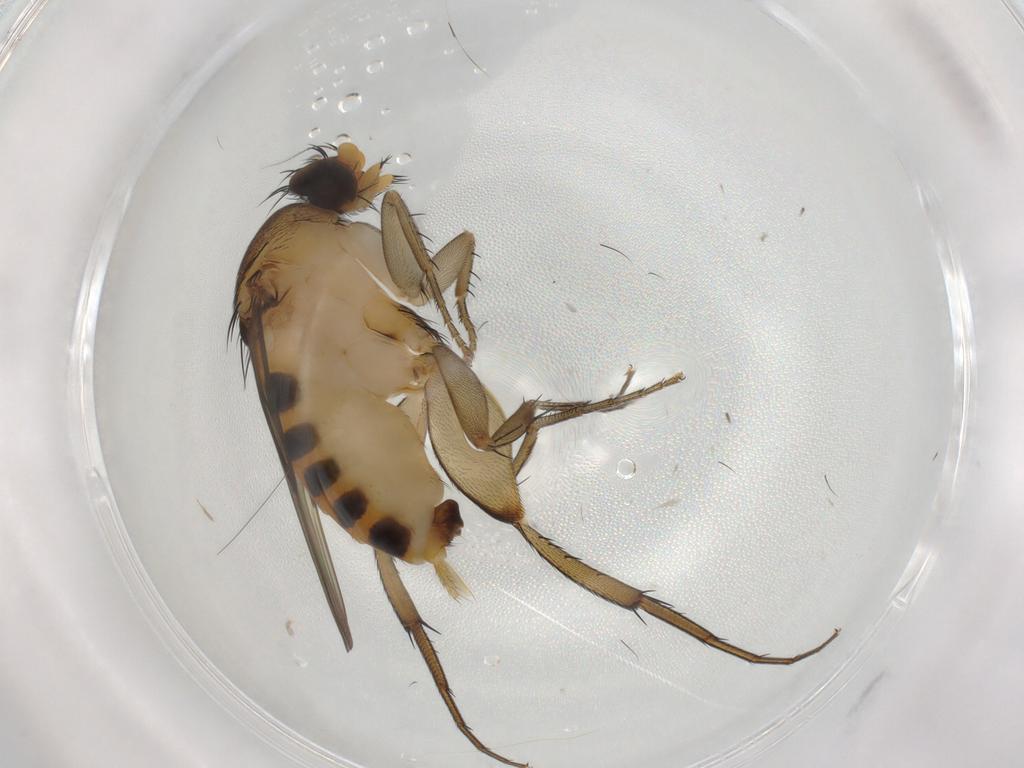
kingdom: Animalia
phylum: Arthropoda
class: Insecta
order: Diptera
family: Phoridae
